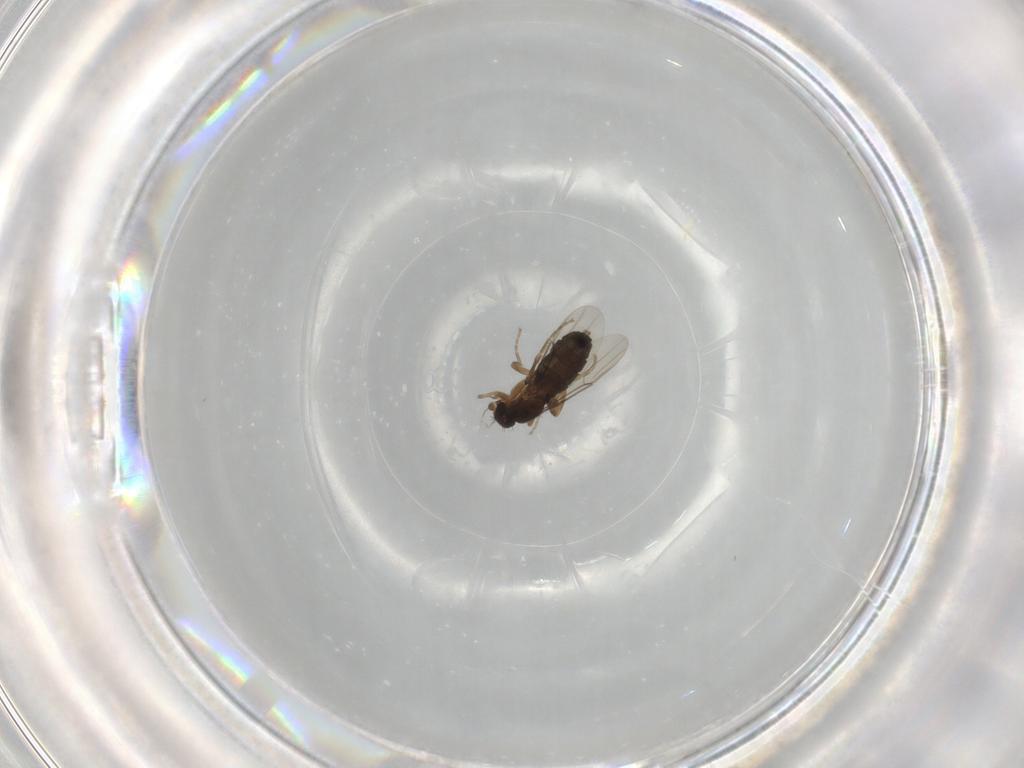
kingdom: Animalia
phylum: Arthropoda
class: Insecta
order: Diptera
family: Phoridae
